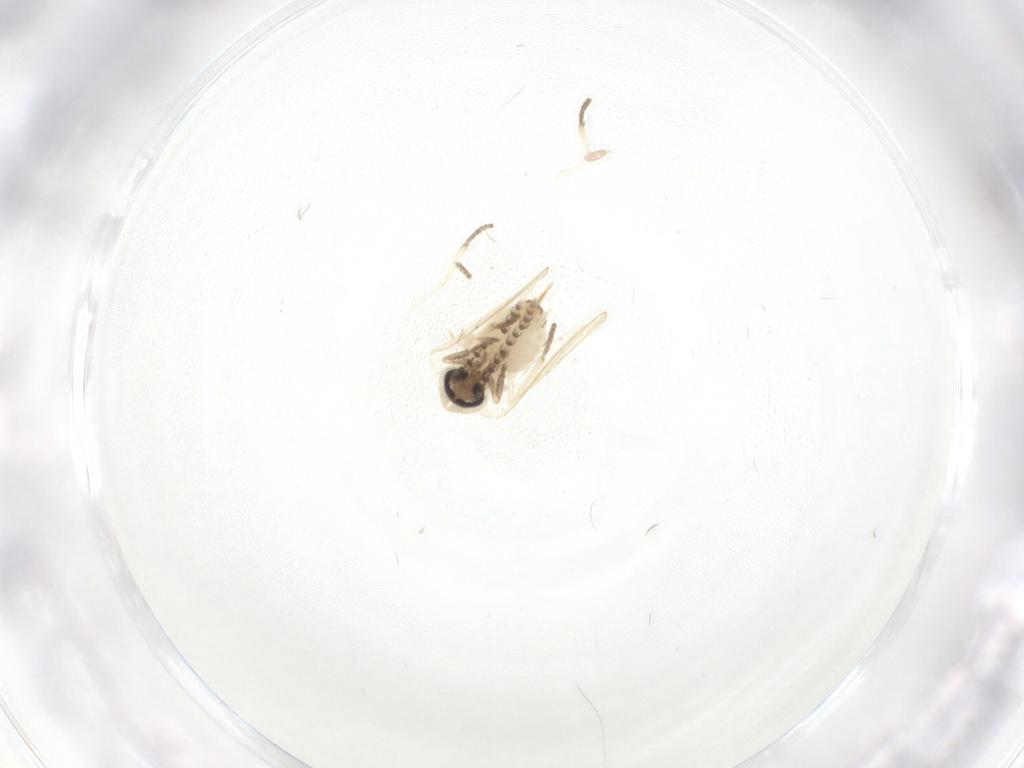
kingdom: Animalia
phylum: Arthropoda
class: Insecta
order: Diptera
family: Psychodidae
